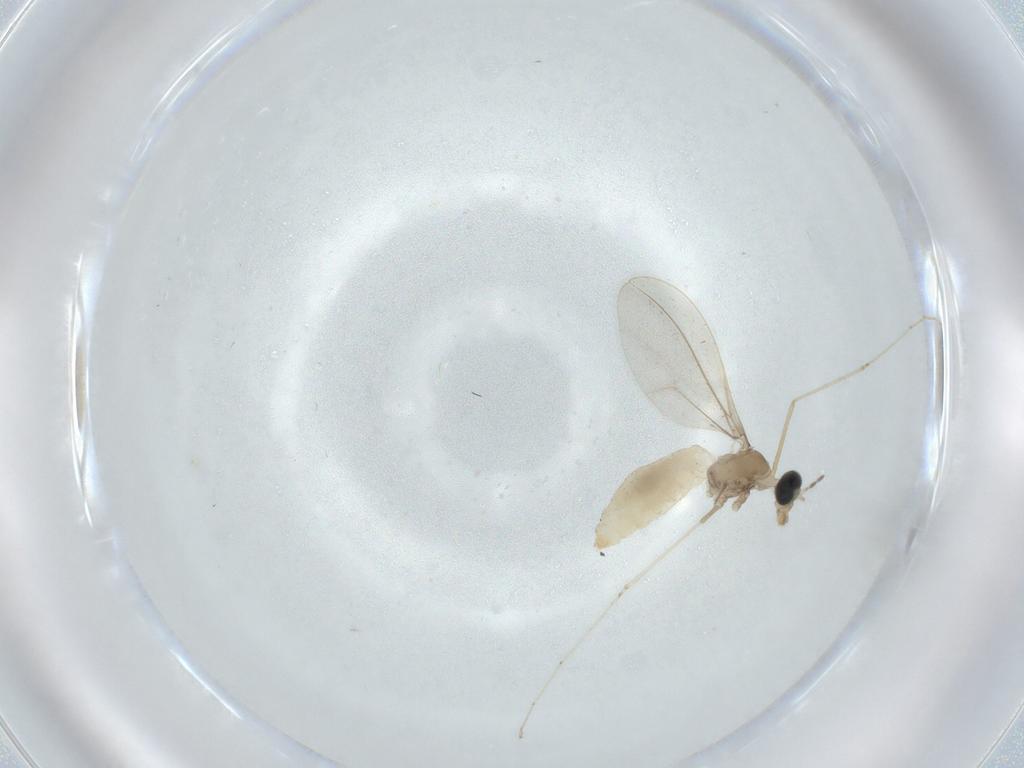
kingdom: Animalia
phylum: Arthropoda
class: Insecta
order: Diptera
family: Cecidomyiidae
